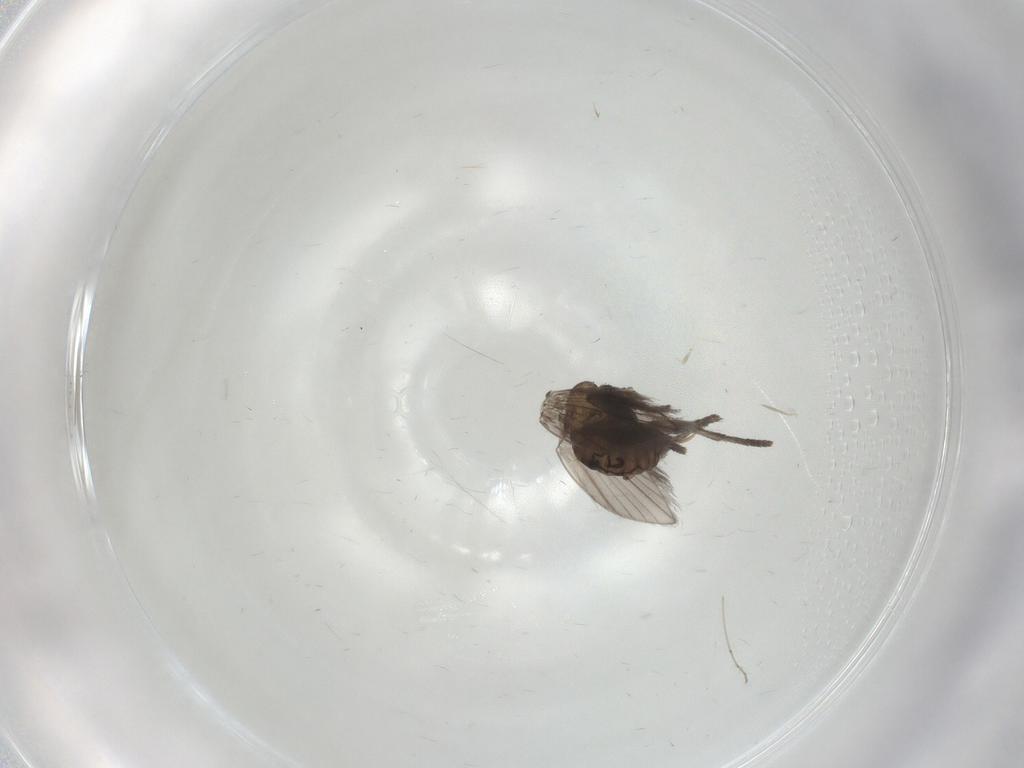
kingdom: Animalia
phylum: Arthropoda
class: Insecta
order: Diptera
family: Psychodidae
